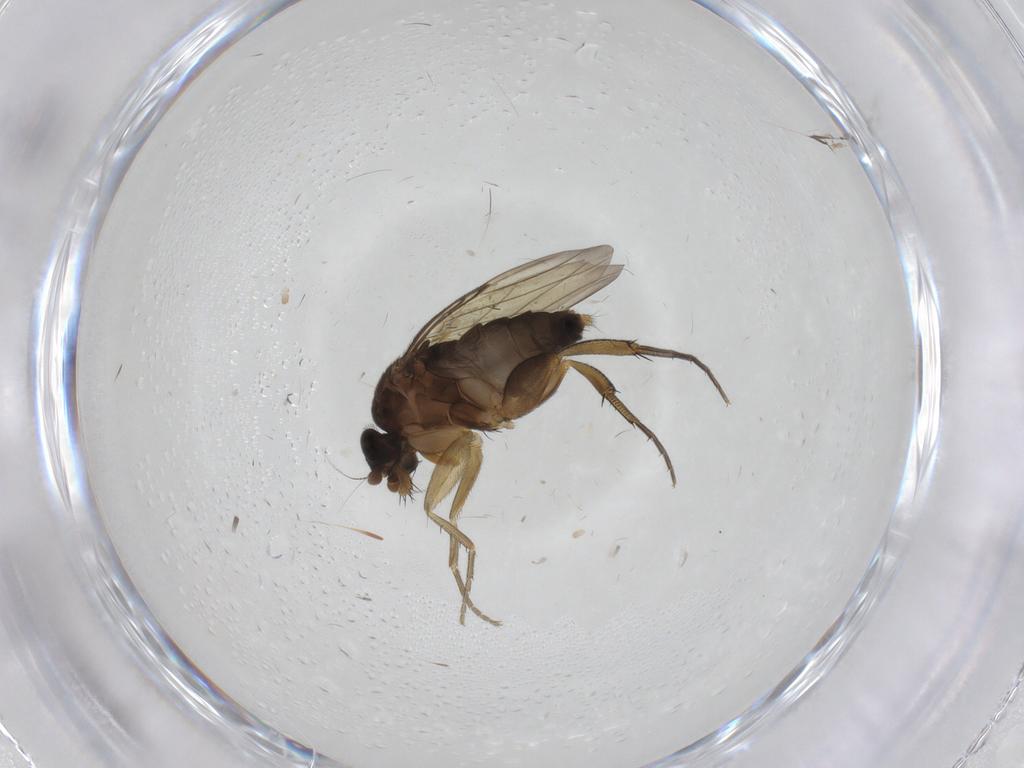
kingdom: Animalia
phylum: Arthropoda
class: Insecta
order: Diptera
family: Phoridae
